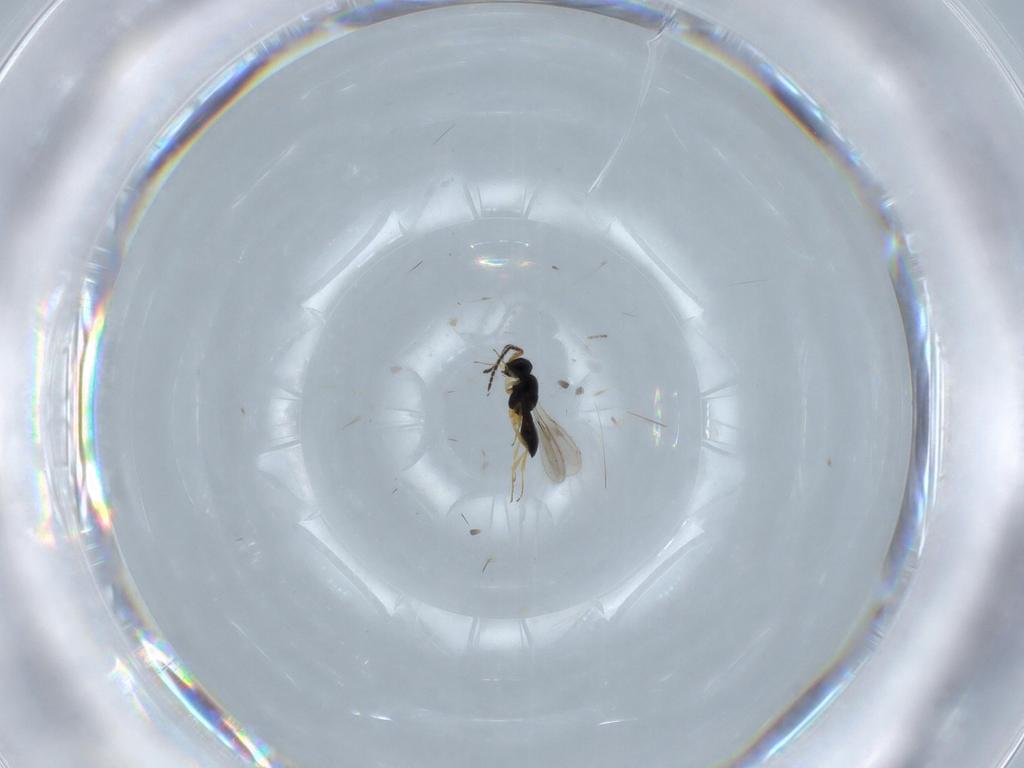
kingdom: Animalia
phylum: Arthropoda
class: Insecta
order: Hymenoptera
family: Scelionidae
